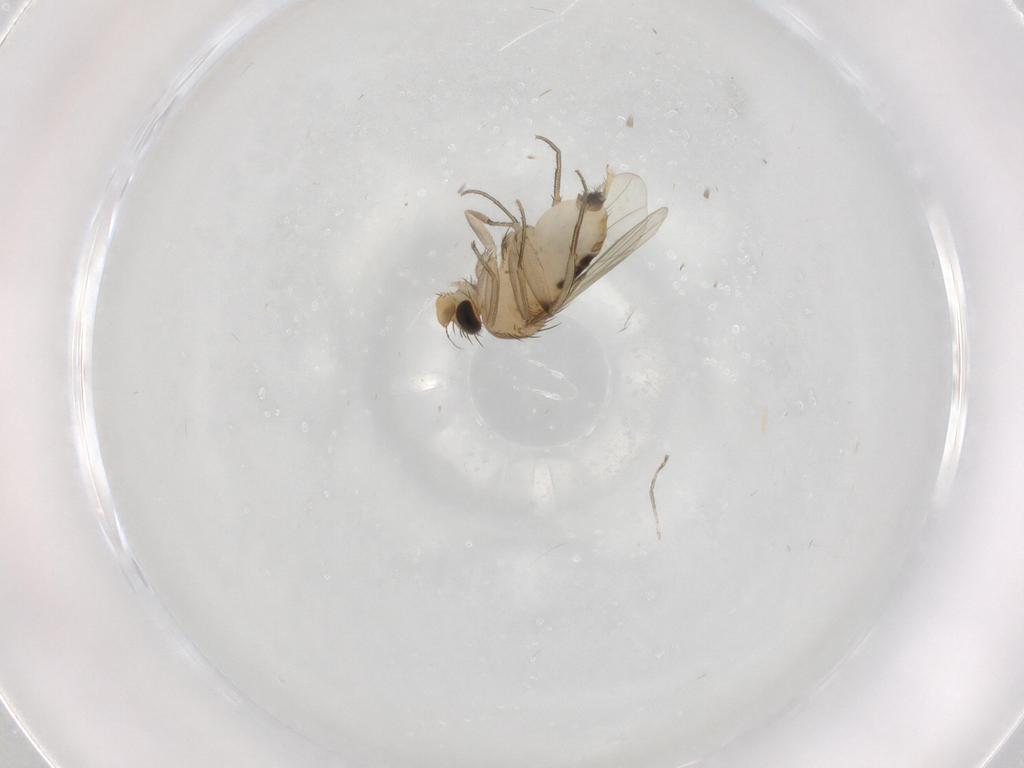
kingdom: Animalia
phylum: Arthropoda
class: Insecta
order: Diptera
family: Phoridae
